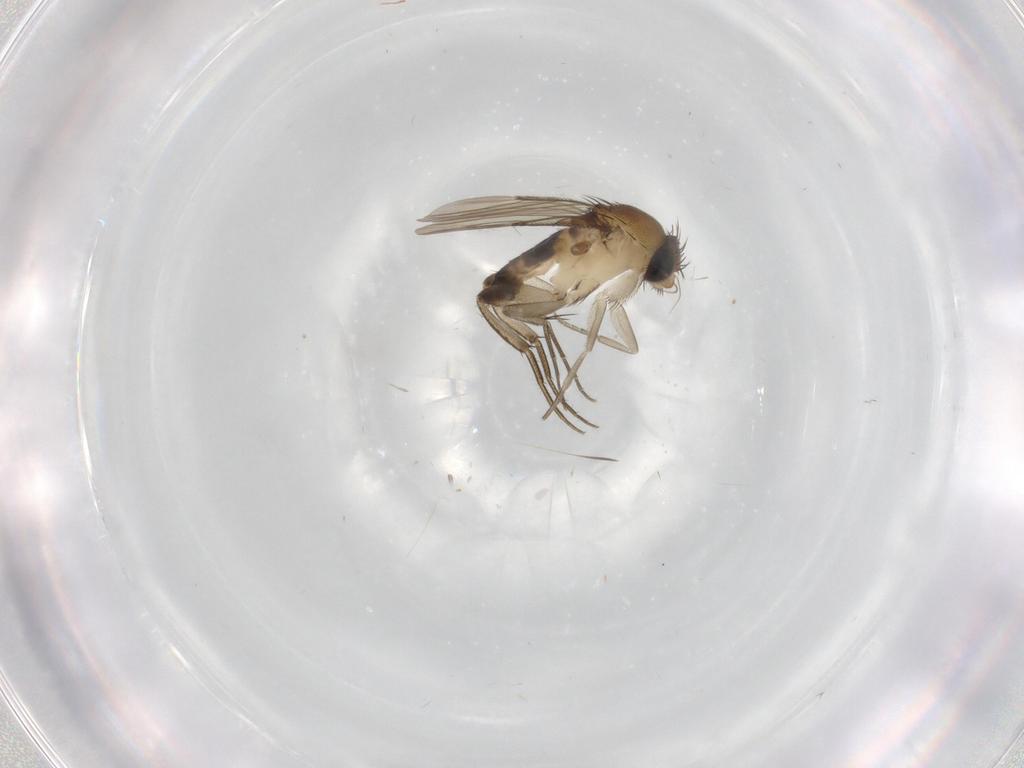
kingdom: Animalia
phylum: Arthropoda
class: Insecta
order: Diptera
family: Phoridae
